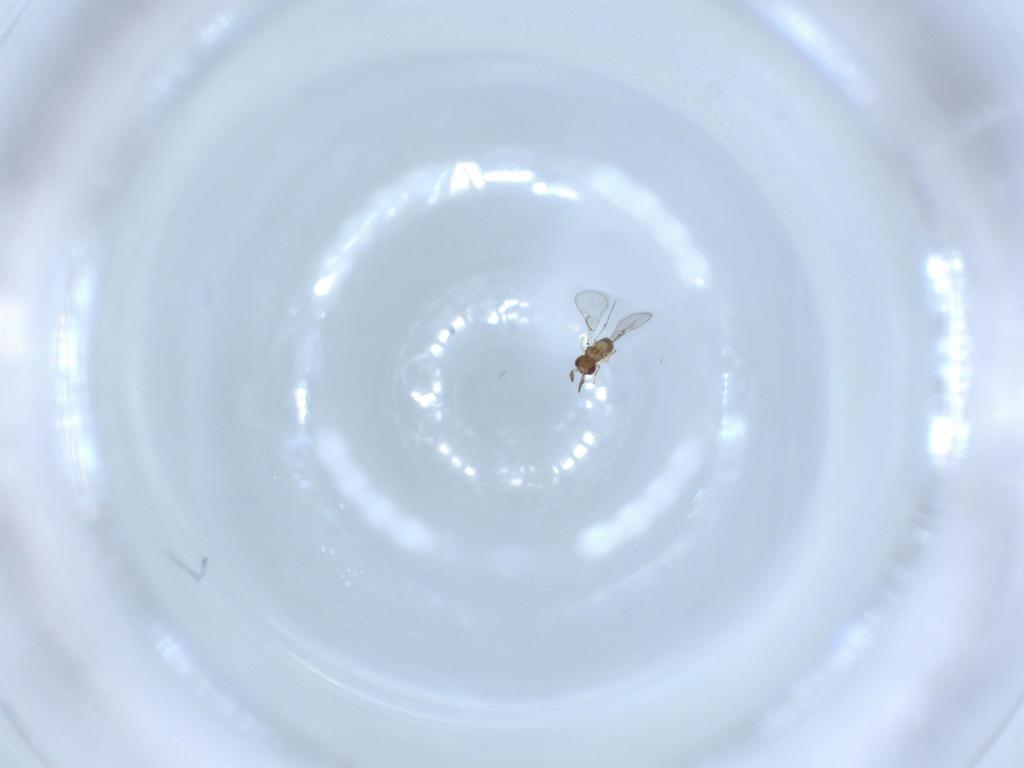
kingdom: Animalia
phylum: Arthropoda
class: Insecta
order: Hymenoptera
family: Trichogrammatidae
